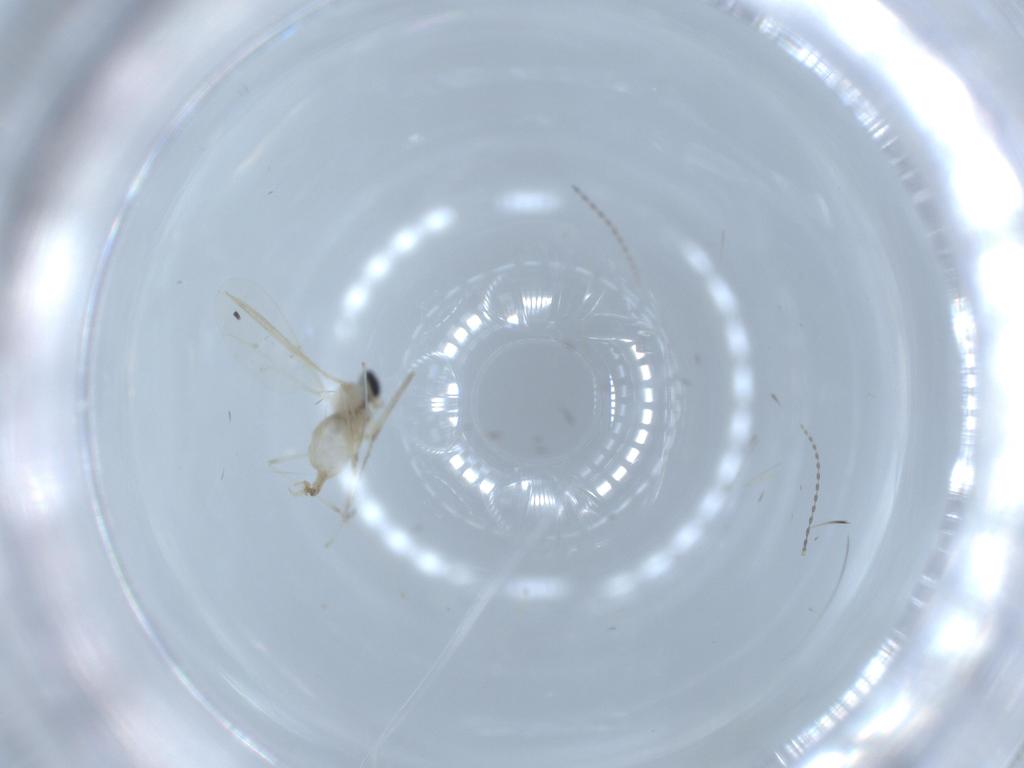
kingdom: Animalia
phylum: Arthropoda
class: Insecta
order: Diptera
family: Cecidomyiidae
